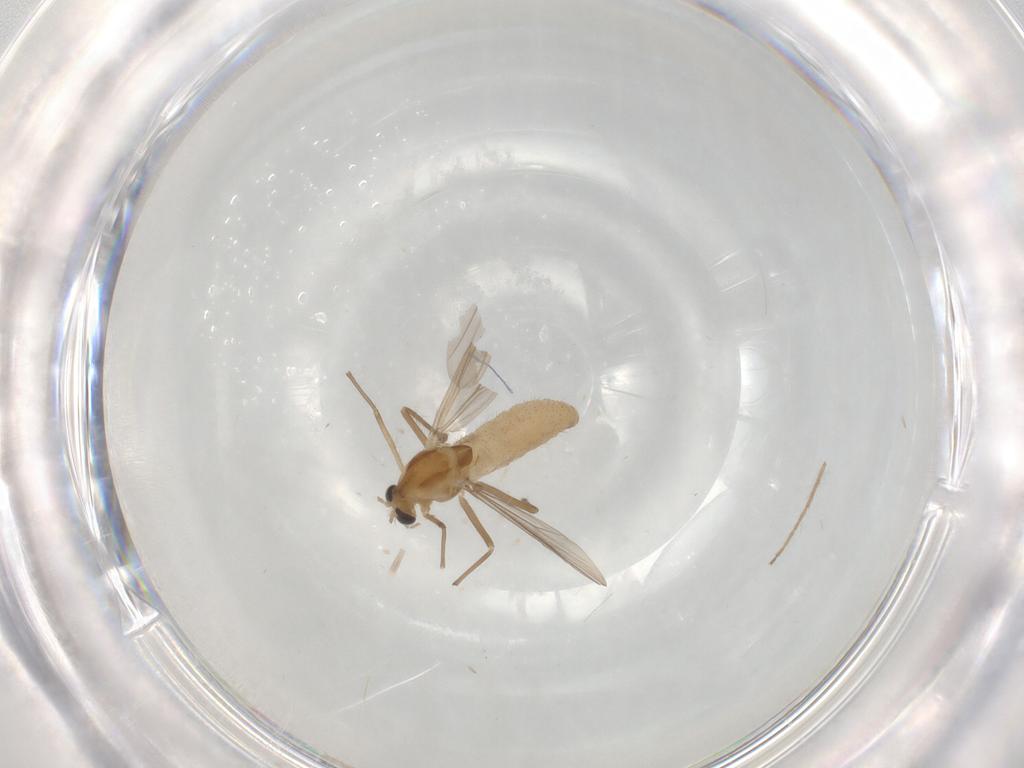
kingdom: Animalia
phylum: Arthropoda
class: Insecta
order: Diptera
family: Chironomidae
